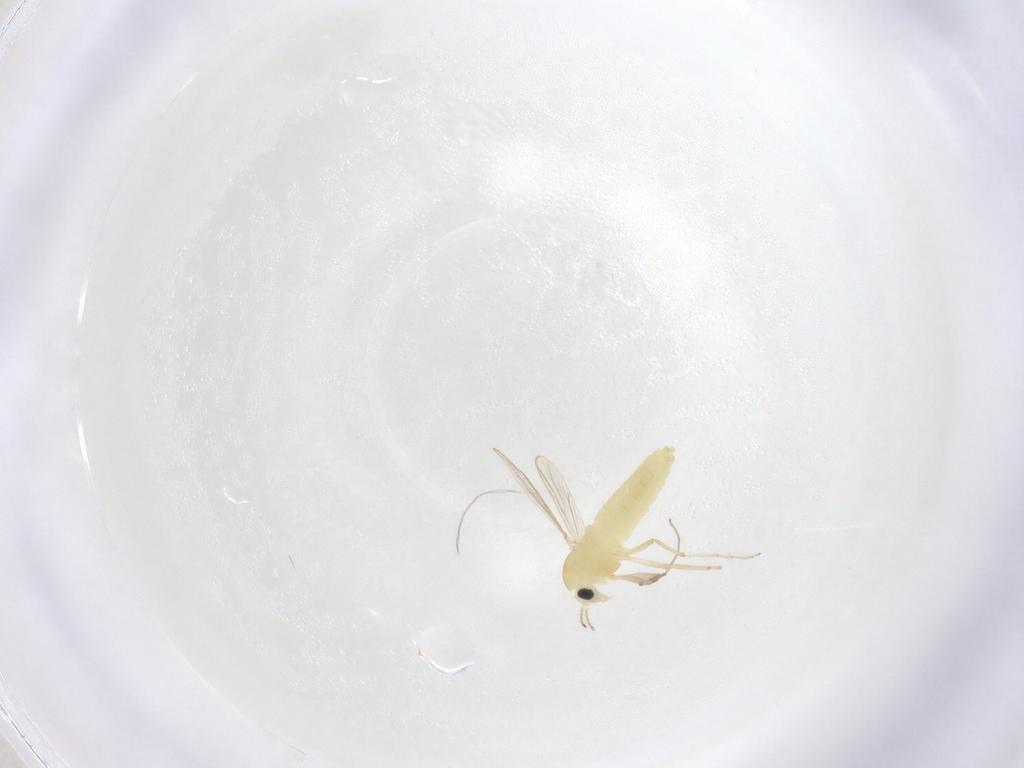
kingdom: Animalia
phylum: Arthropoda
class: Insecta
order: Diptera
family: Chironomidae
